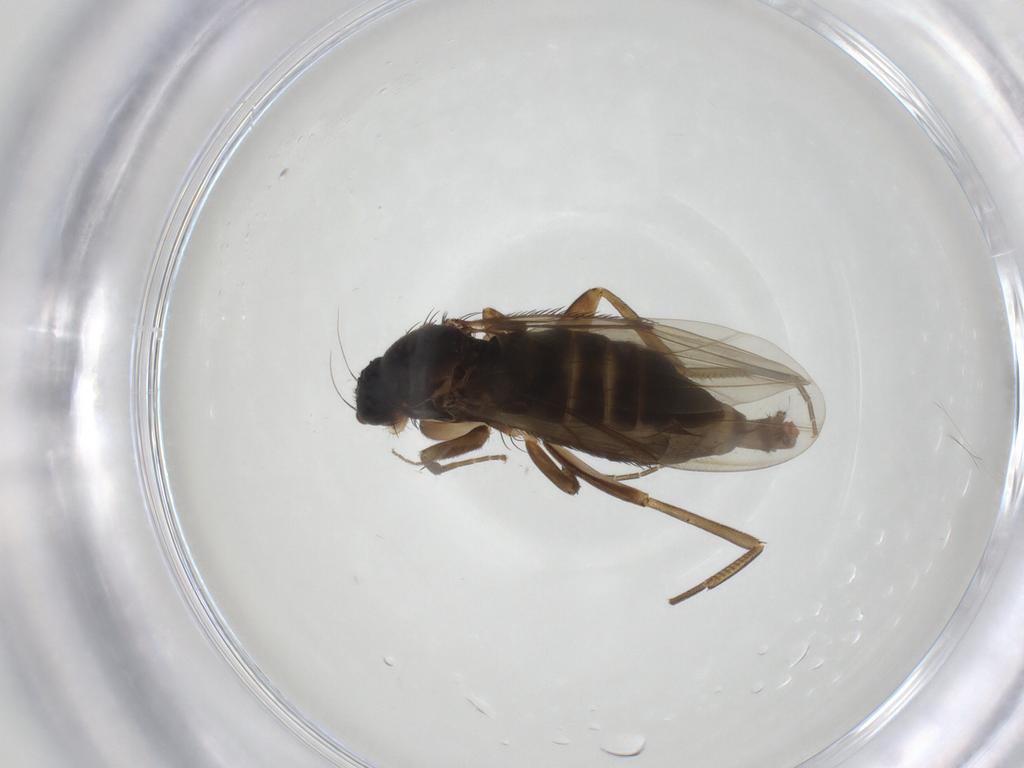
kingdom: Animalia
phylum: Arthropoda
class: Insecta
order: Diptera
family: Phoridae
